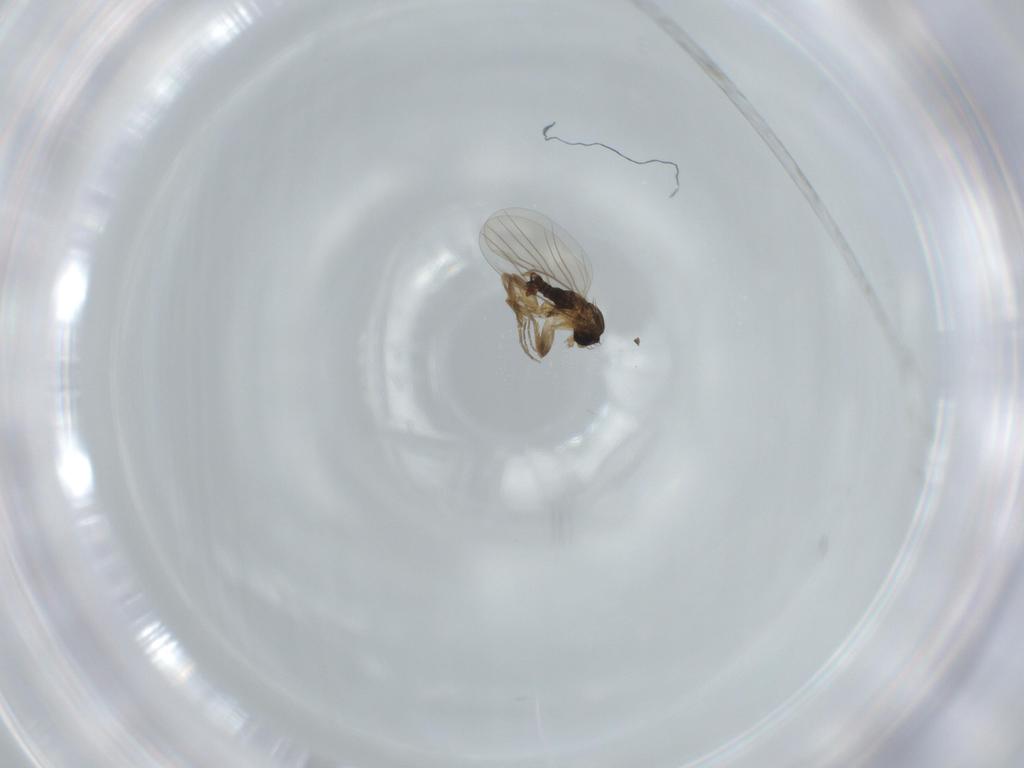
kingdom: Animalia
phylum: Arthropoda
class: Insecta
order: Diptera
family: Phoridae
